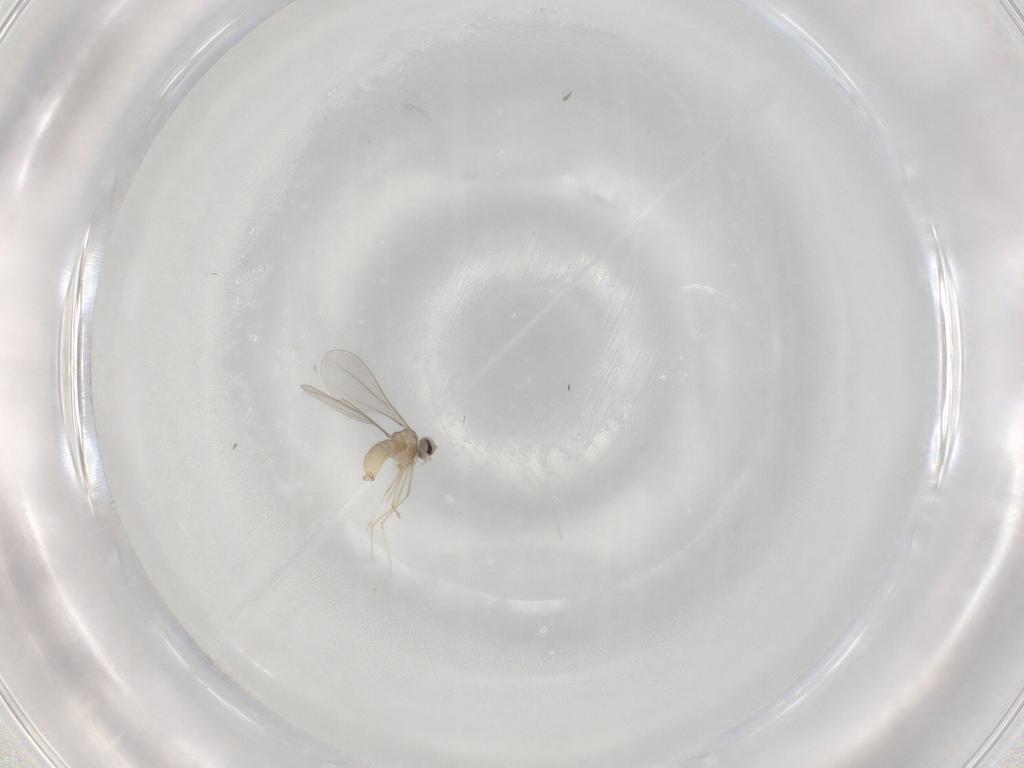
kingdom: Animalia
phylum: Arthropoda
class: Insecta
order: Diptera
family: Cecidomyiidae
